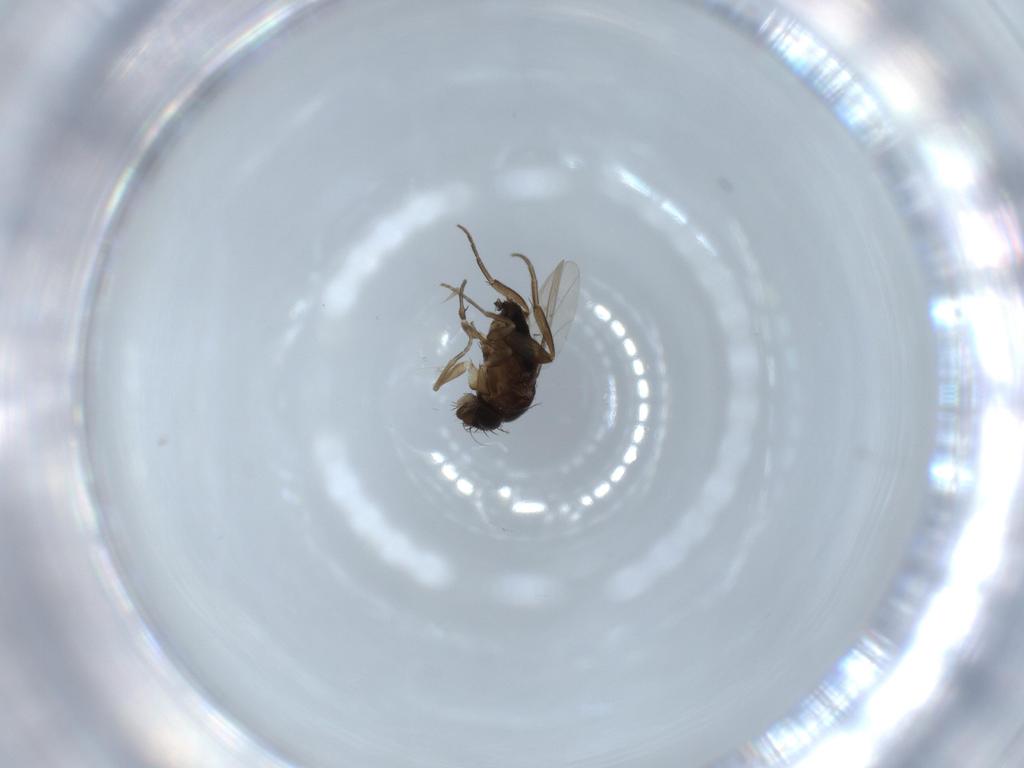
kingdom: Animalia
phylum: Arthropoda
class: Insecta
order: Diptera
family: Phoridae
